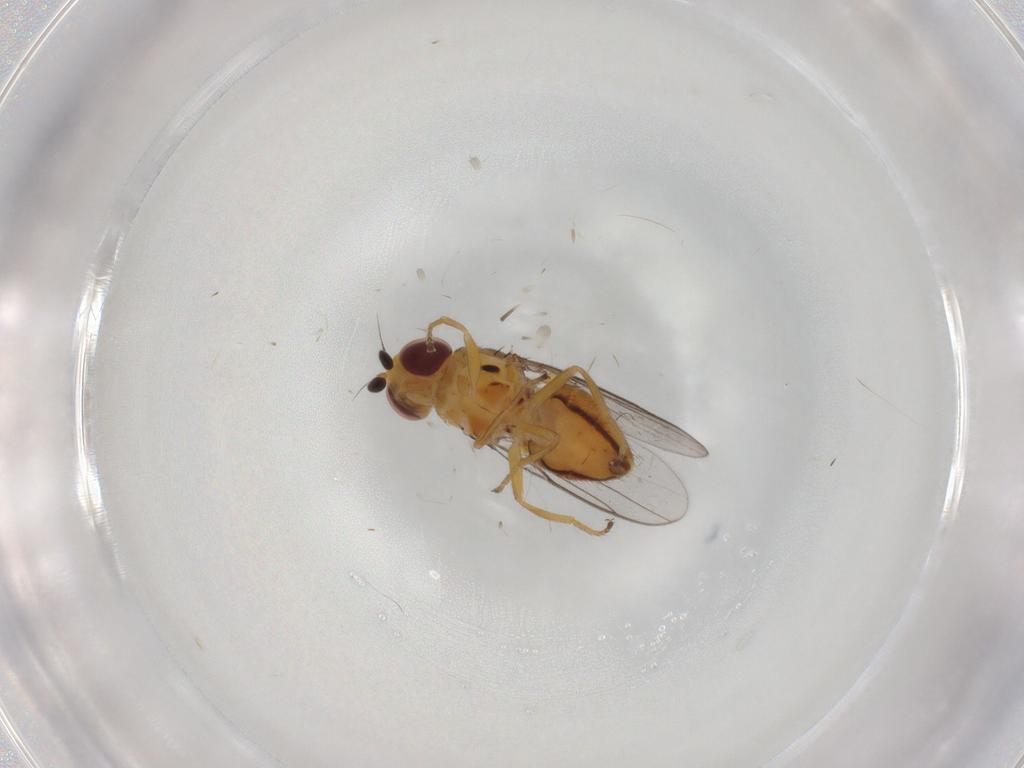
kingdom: Animalia
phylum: Arthropoda
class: Insecta
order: Diptera
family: Chloropidae
